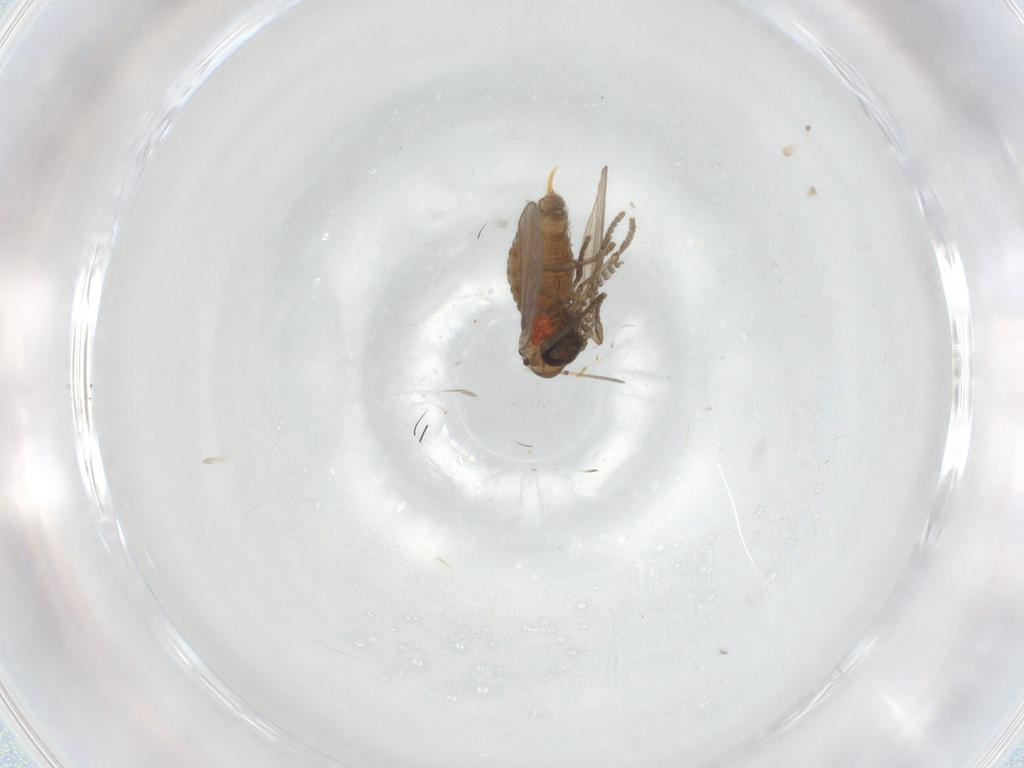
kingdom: Animalia
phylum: Arthropoda
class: Insecta
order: Diptera
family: Psychodidae
